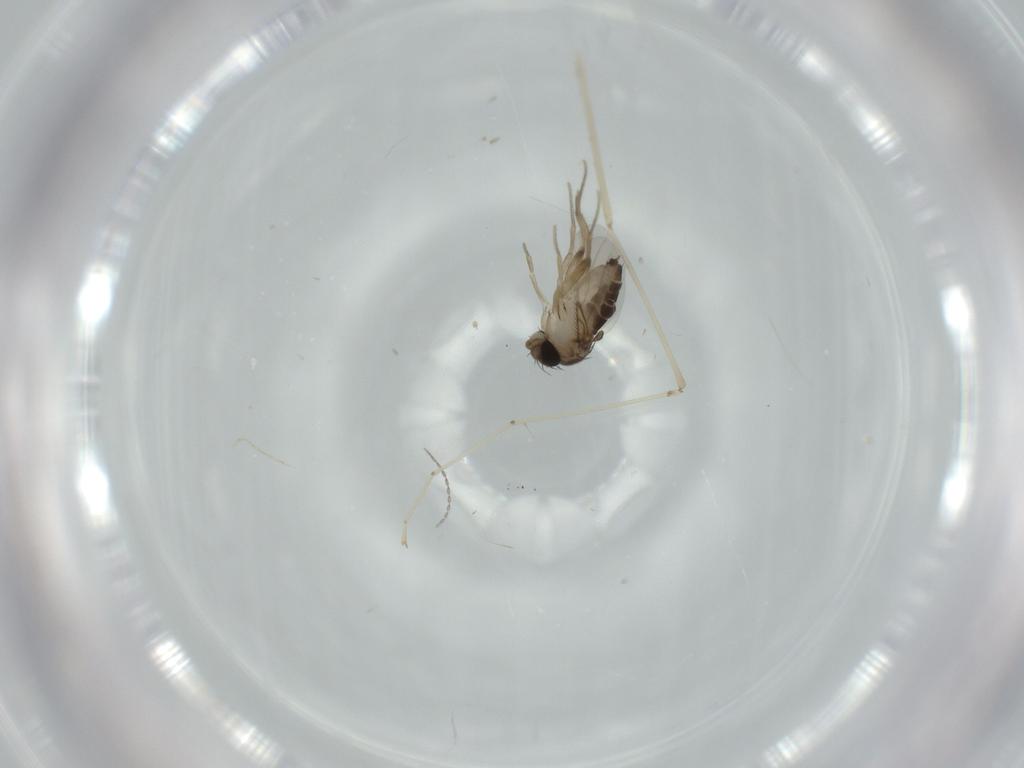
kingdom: Animalia
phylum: Arthropoda
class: Insecta
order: Diptera
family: Phoridae
